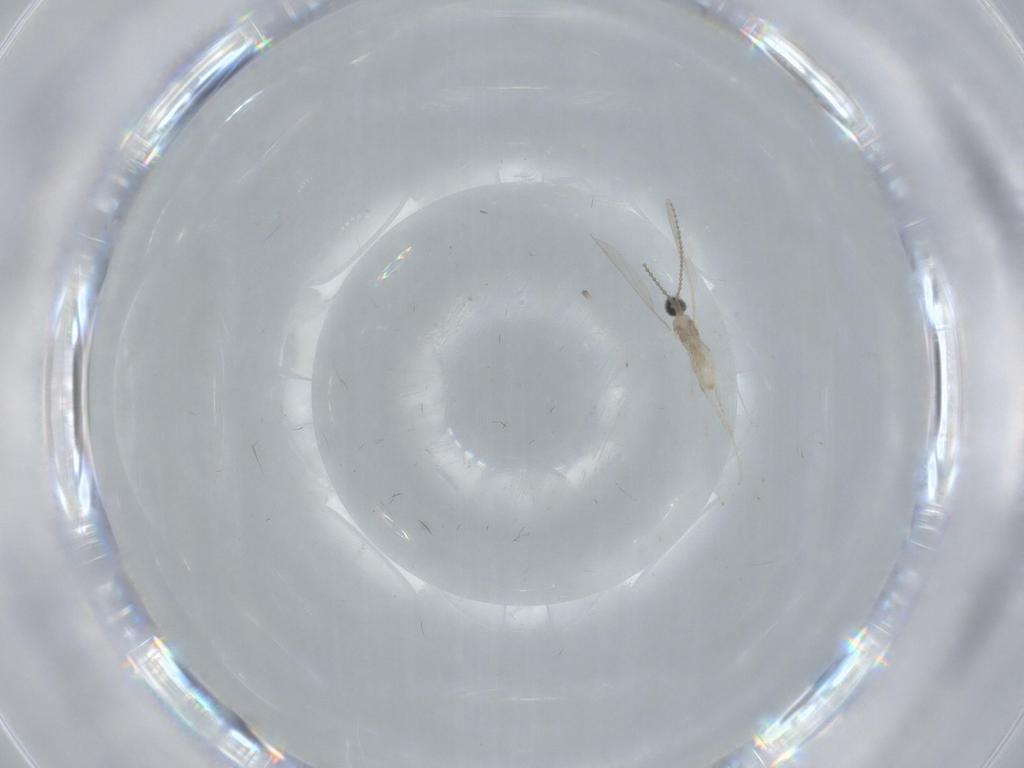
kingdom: Animalia
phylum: Arthropoda
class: Insecta
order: Diptera
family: Cecidomyiidae
